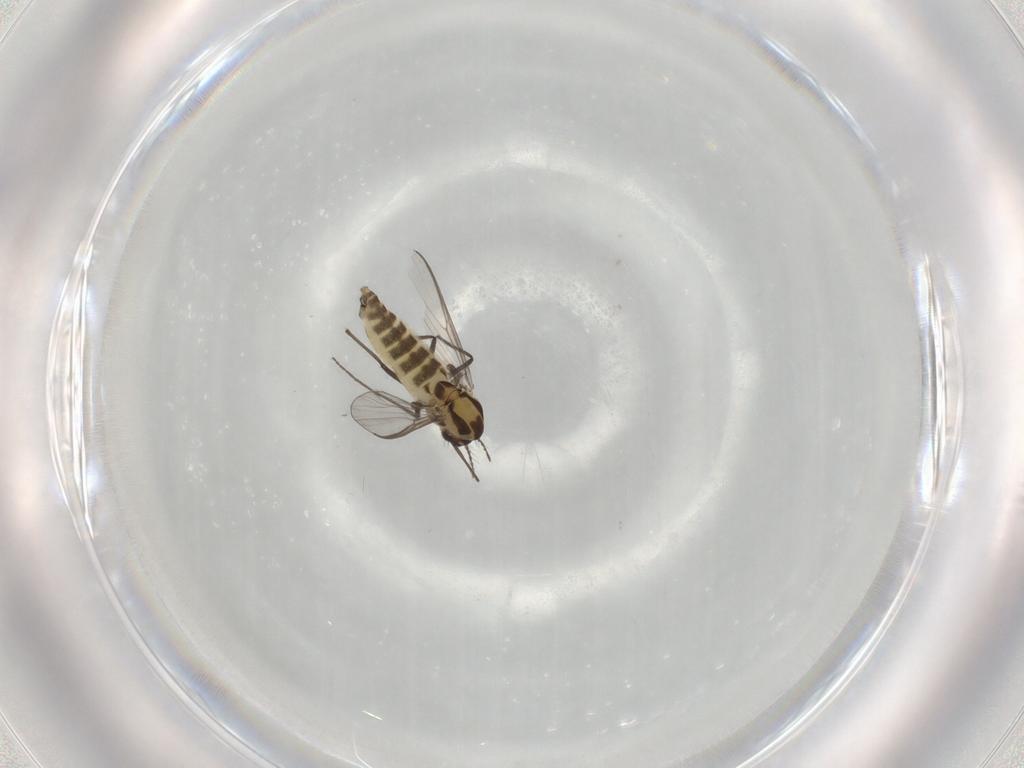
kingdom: Animalia
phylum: Arthropoda
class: Insecta
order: Diptera
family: Chironomidae
